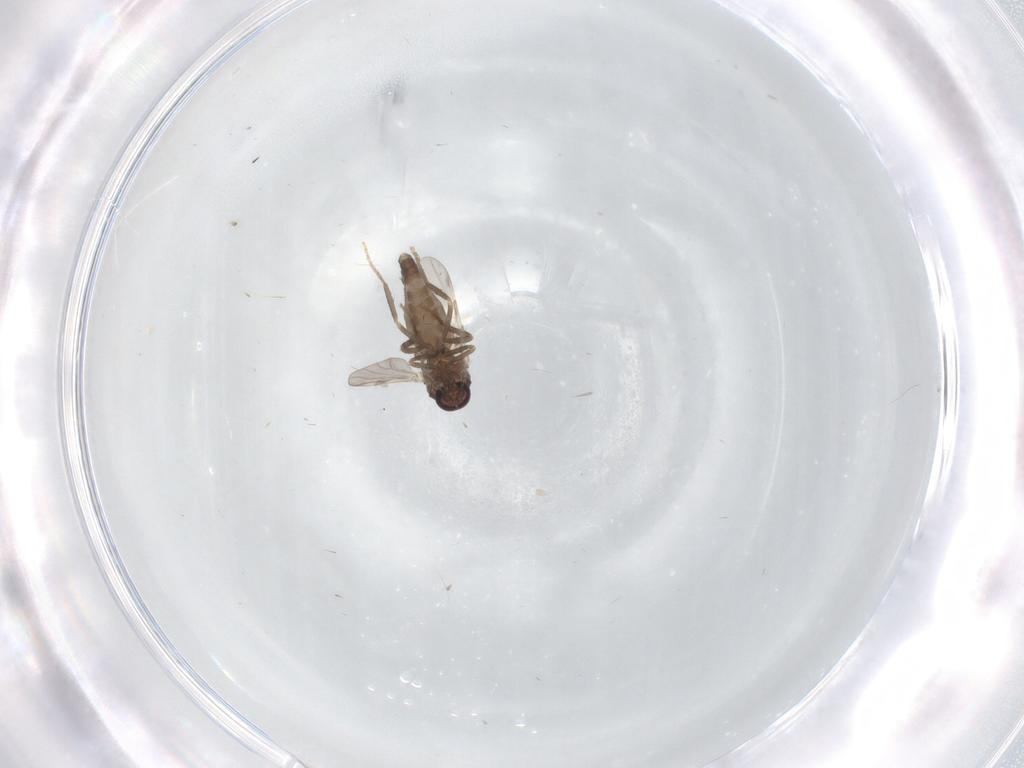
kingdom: Animalia
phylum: Arthropoda
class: Insecta
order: Diptera
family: Ceratopogonidae
